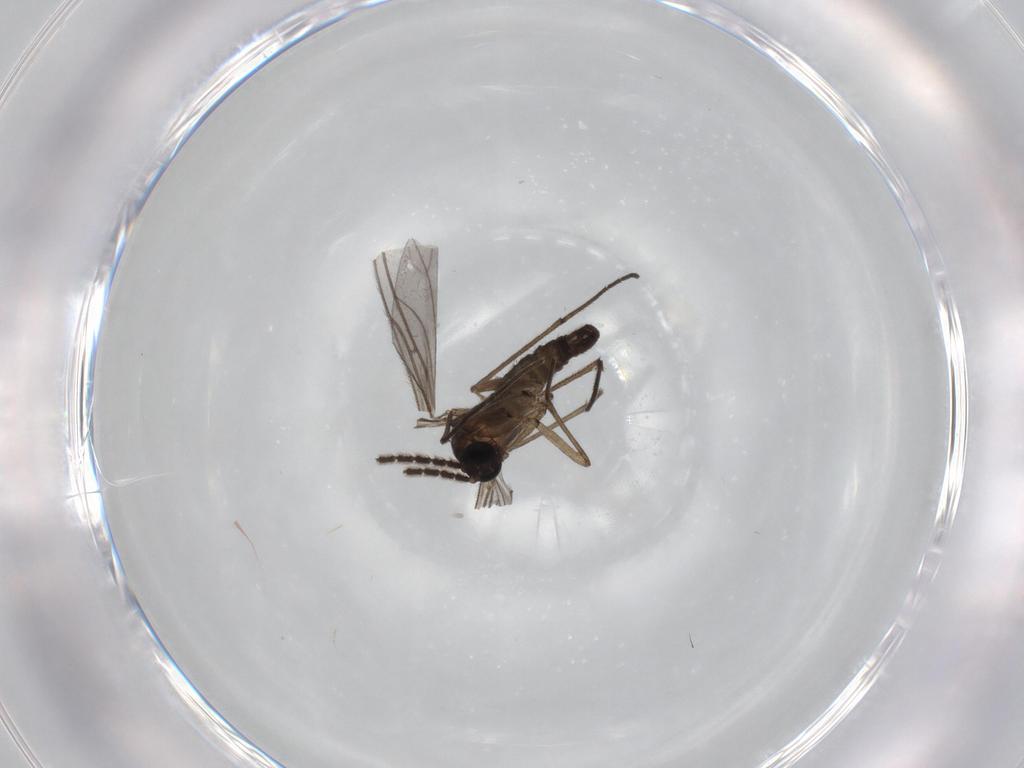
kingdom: Animalia
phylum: Arthropoda
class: Insecta
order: Diptera
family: Sciaridae
